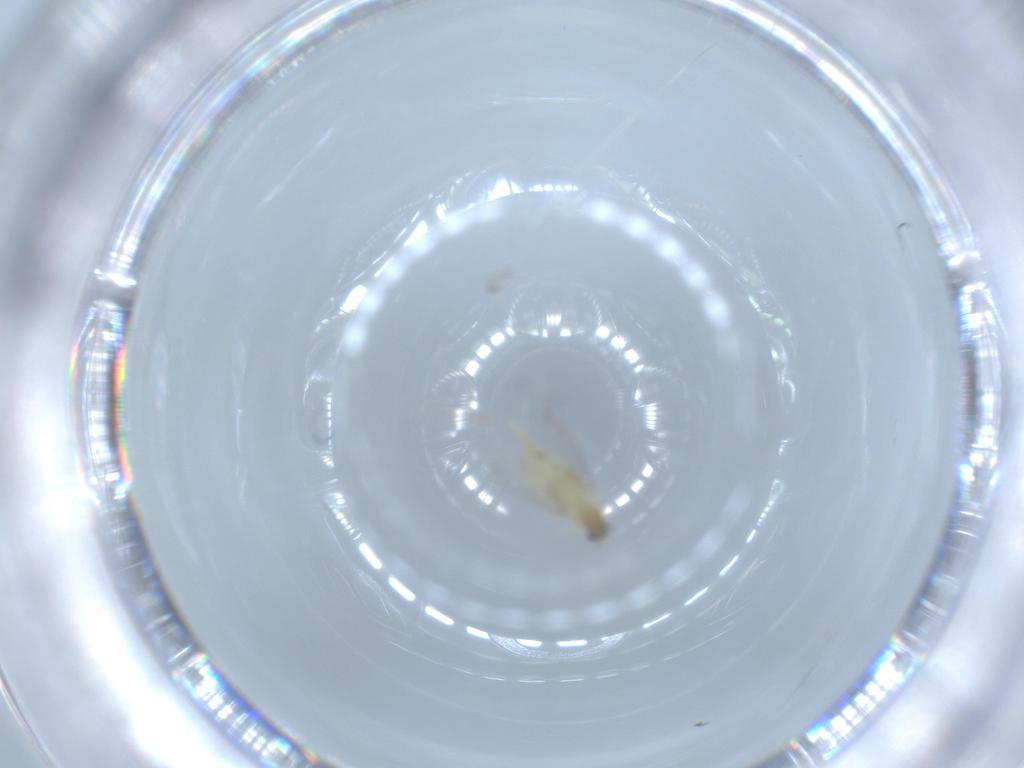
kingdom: Animalia
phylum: Arthropoda
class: Insecta
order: Diptera
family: Cecidomyiidae
